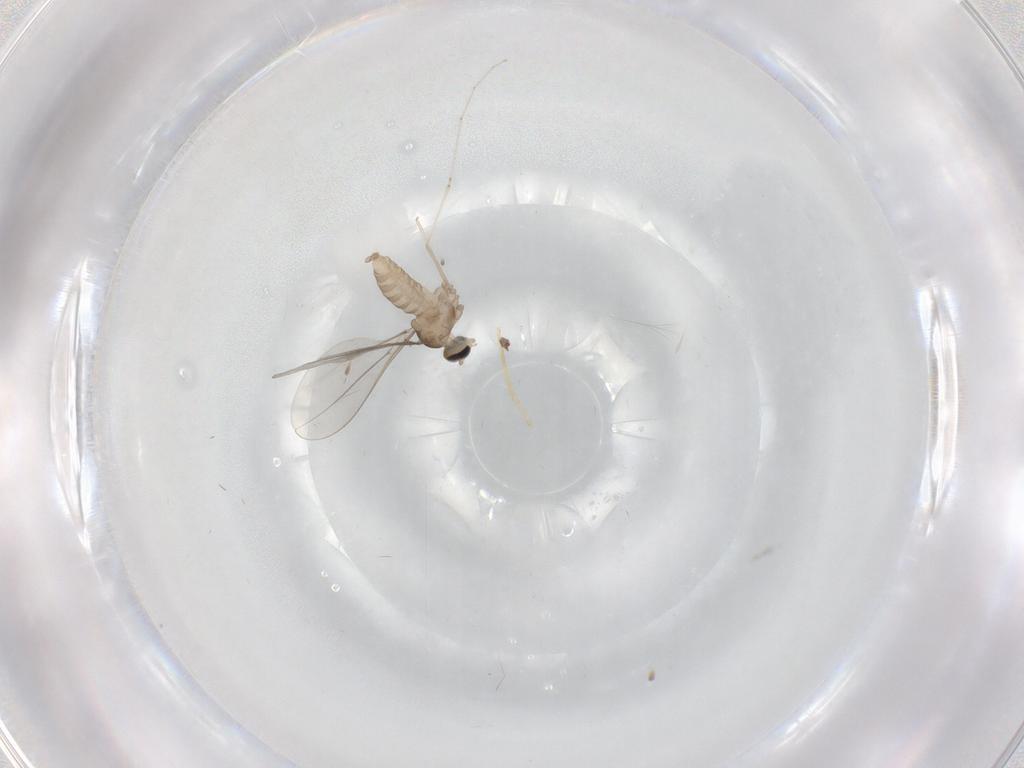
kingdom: Animalia
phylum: Arthropoda
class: Insecta
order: Diptera
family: Cecidomyiidae
